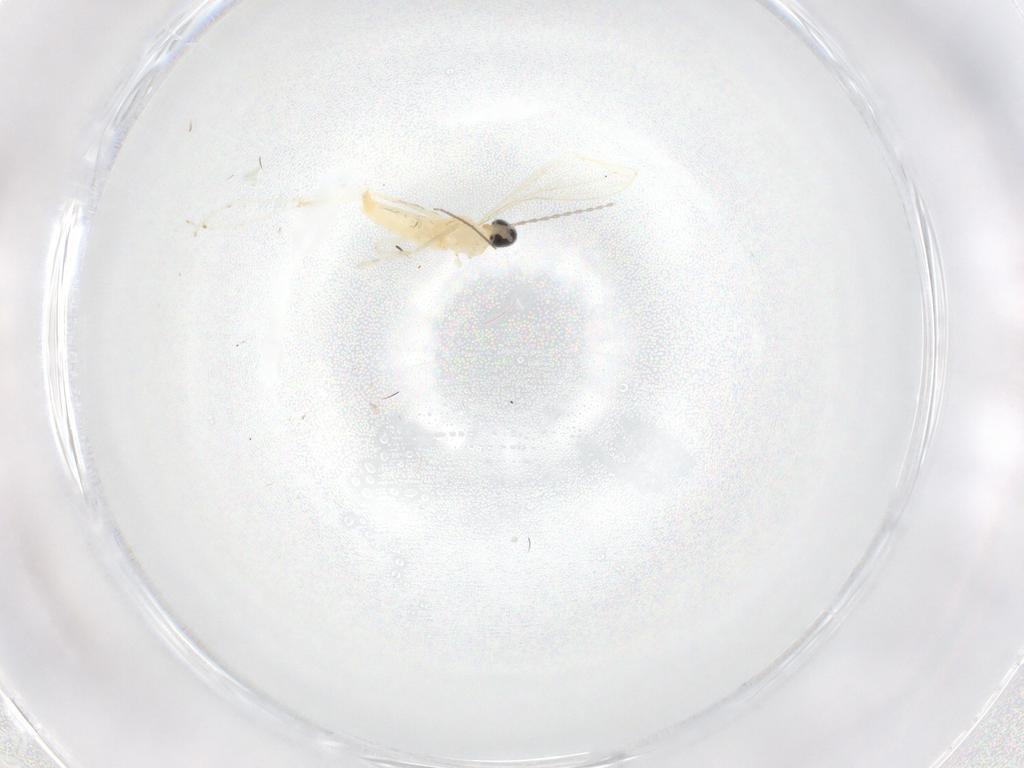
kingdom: Animalia
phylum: Arthropoda
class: Insecta
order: Diptera
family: Chironomidae
